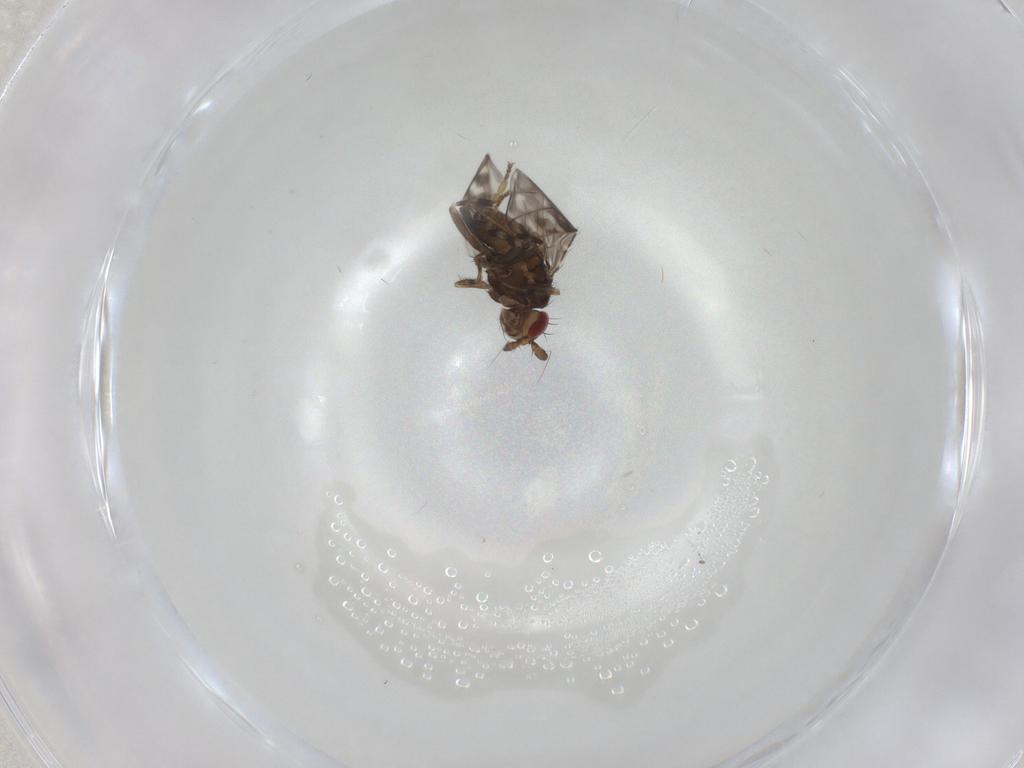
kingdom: Animalia
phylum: Arthropoda
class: Insecta
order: Diptera
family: Sphaeroceridae
